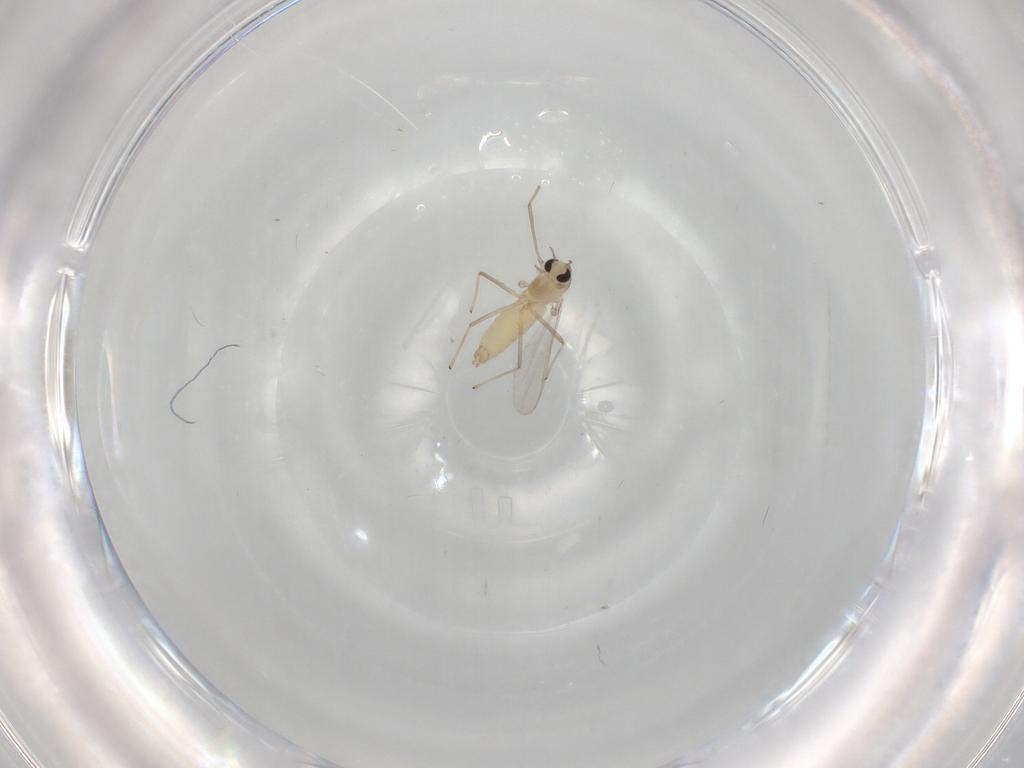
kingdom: Animalia
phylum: Arthropoda
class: Insecta
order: Diptera
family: Chironomidae
